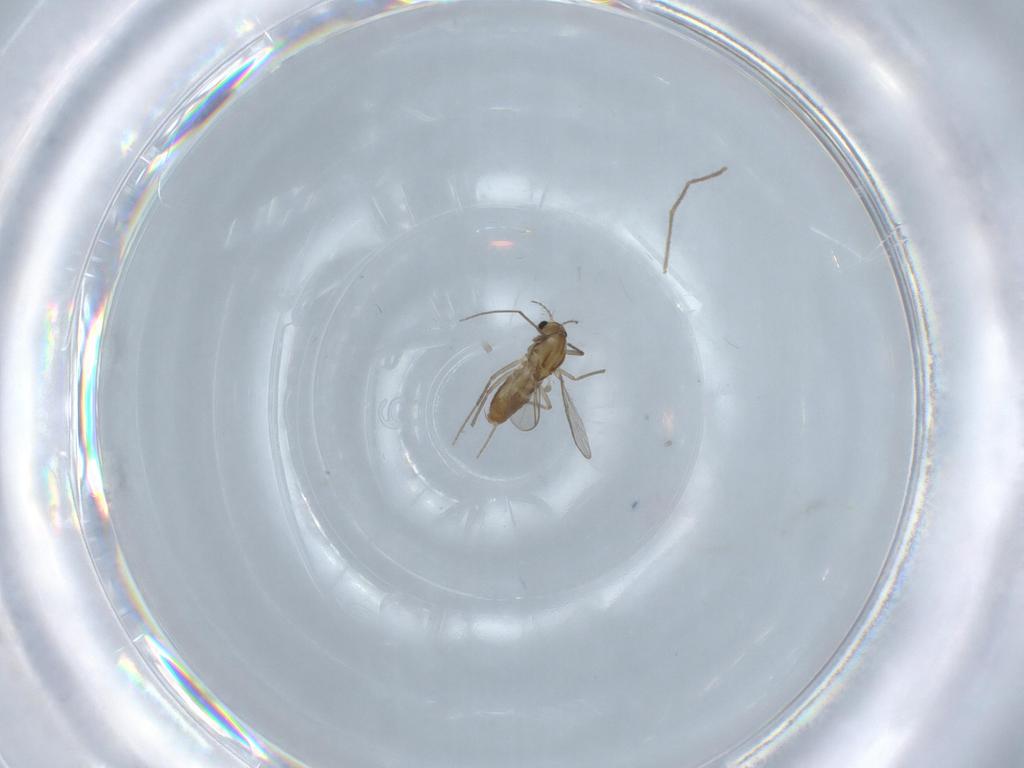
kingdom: Animalia
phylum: Arthropoda
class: Insecta
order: Diptera
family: Chironomidae
